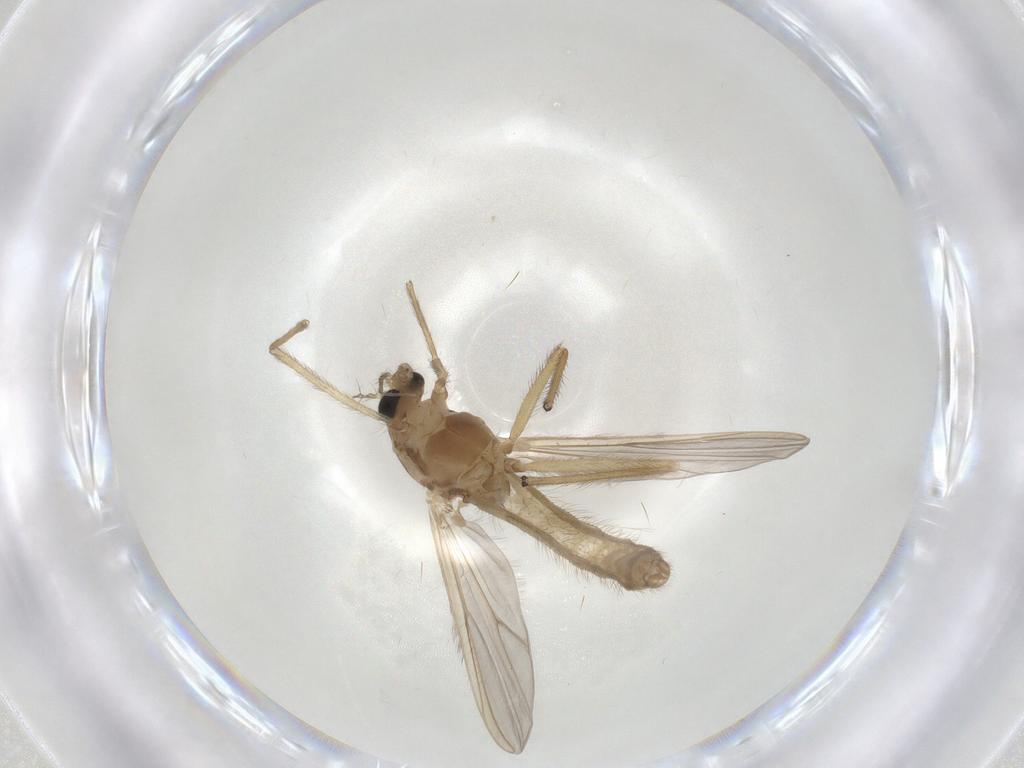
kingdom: Animalia
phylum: Arthropoda
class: Insecta
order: Diptera
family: Chironomidae
